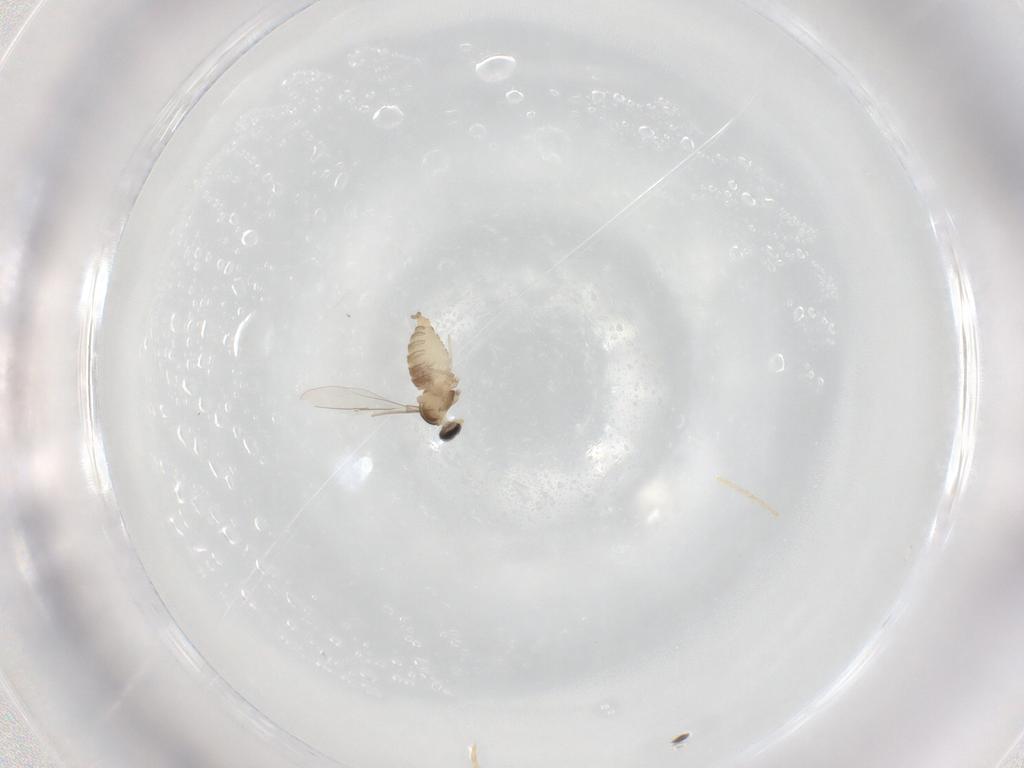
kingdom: Animalia
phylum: Arthropoda
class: Insecta
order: Diptera
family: Cecidomyiidae
